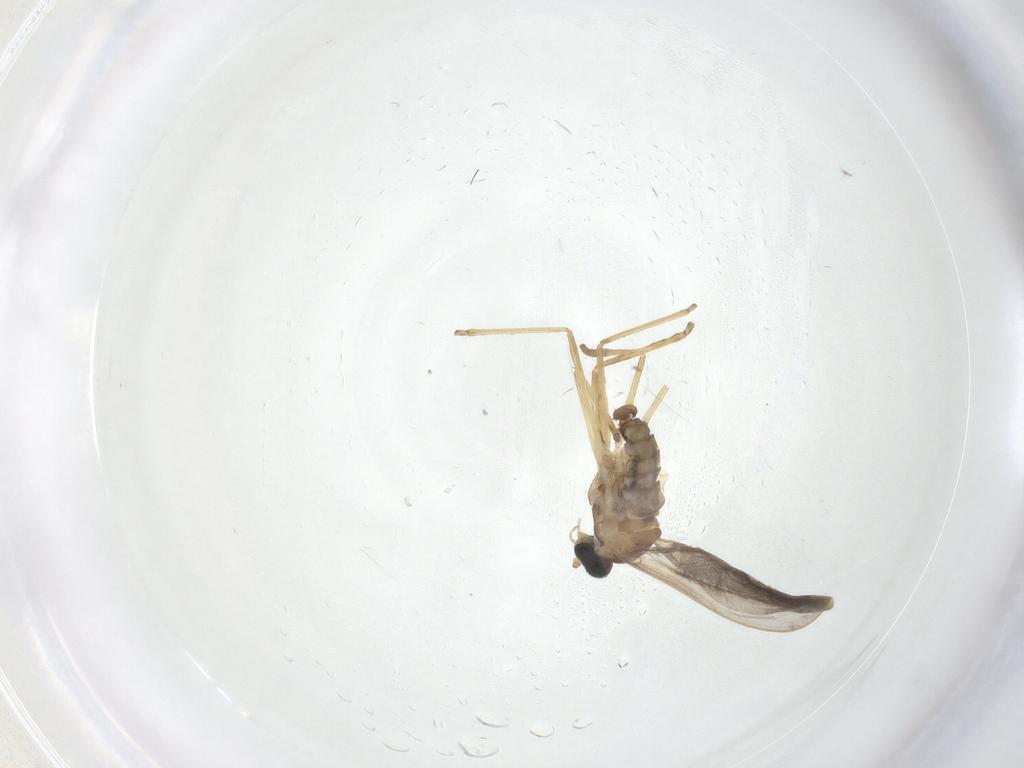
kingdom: Animalia
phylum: Arthropoda
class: Insecta
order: Diptera
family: Cecidomyiidae
